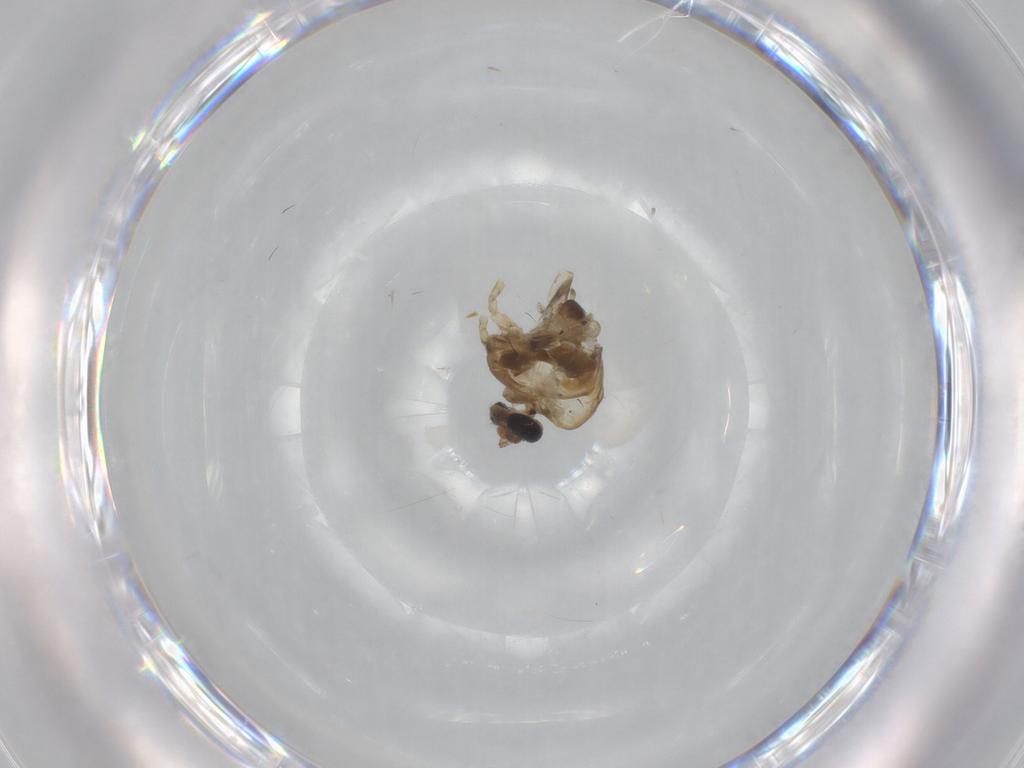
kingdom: Animalia
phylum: Arthropoda
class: Insecta
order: Diptera
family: Psychodidae
